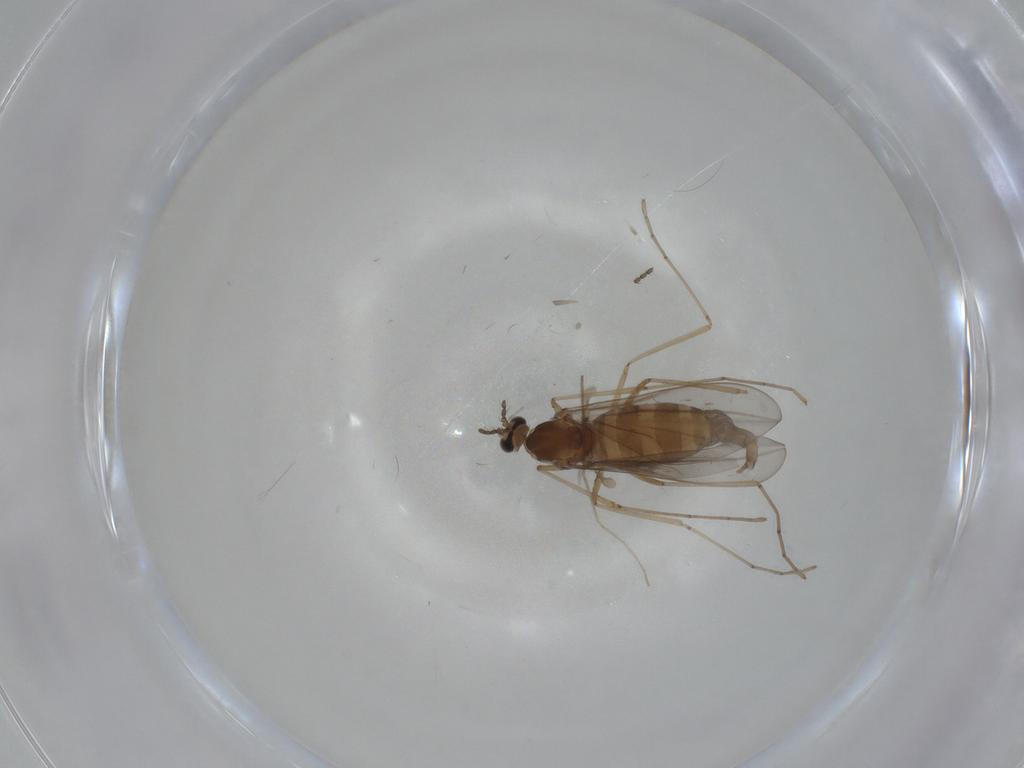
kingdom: Animalia
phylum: Arthropoda
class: Insecta
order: Diptera
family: Chironomidae
